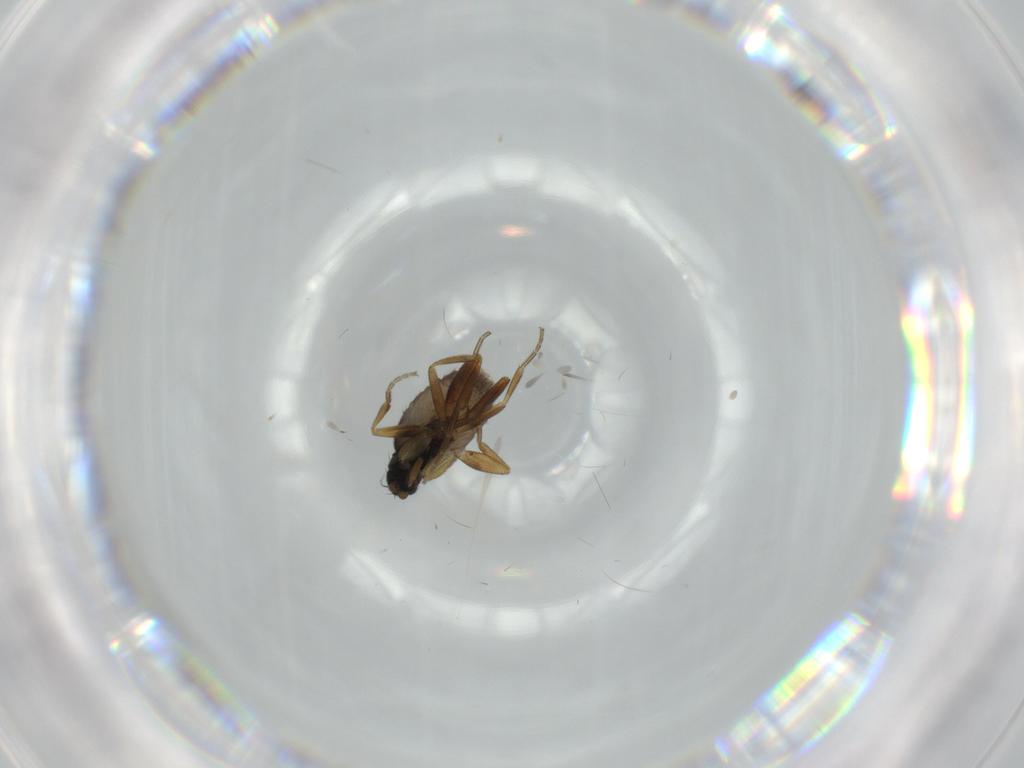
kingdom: Animalia
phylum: Arthropoda
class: Insecta
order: Diptera
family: Phoridae
